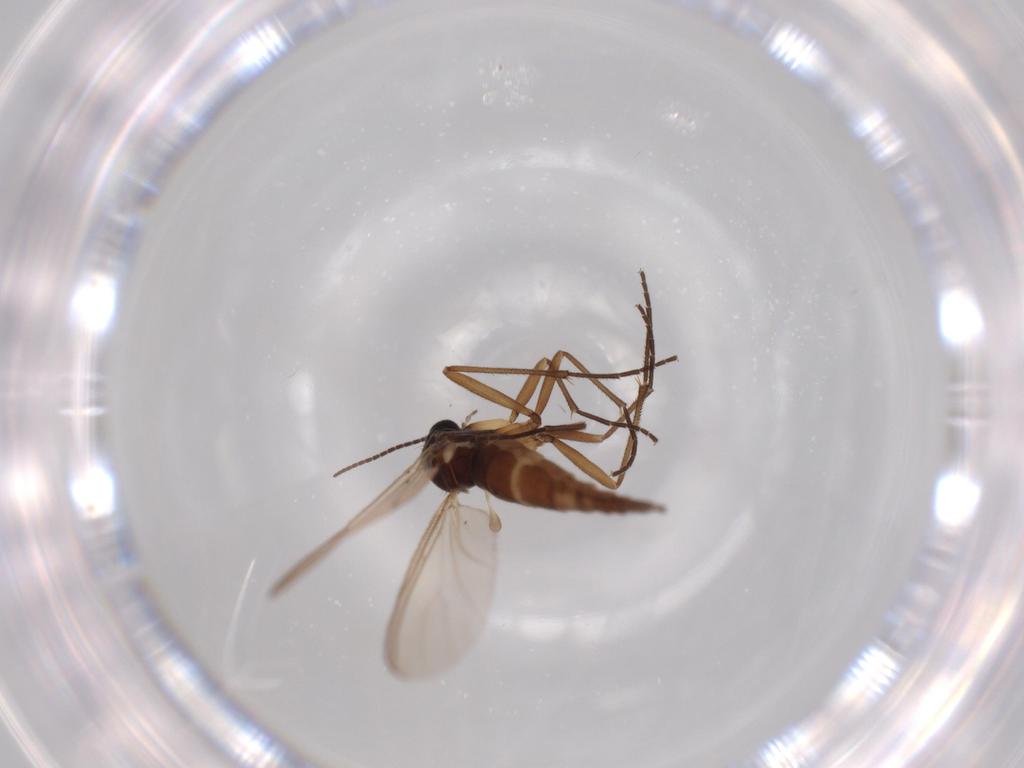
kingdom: Animalia
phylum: Arthropoda
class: Insecta
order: Diptera
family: Sciaridae
